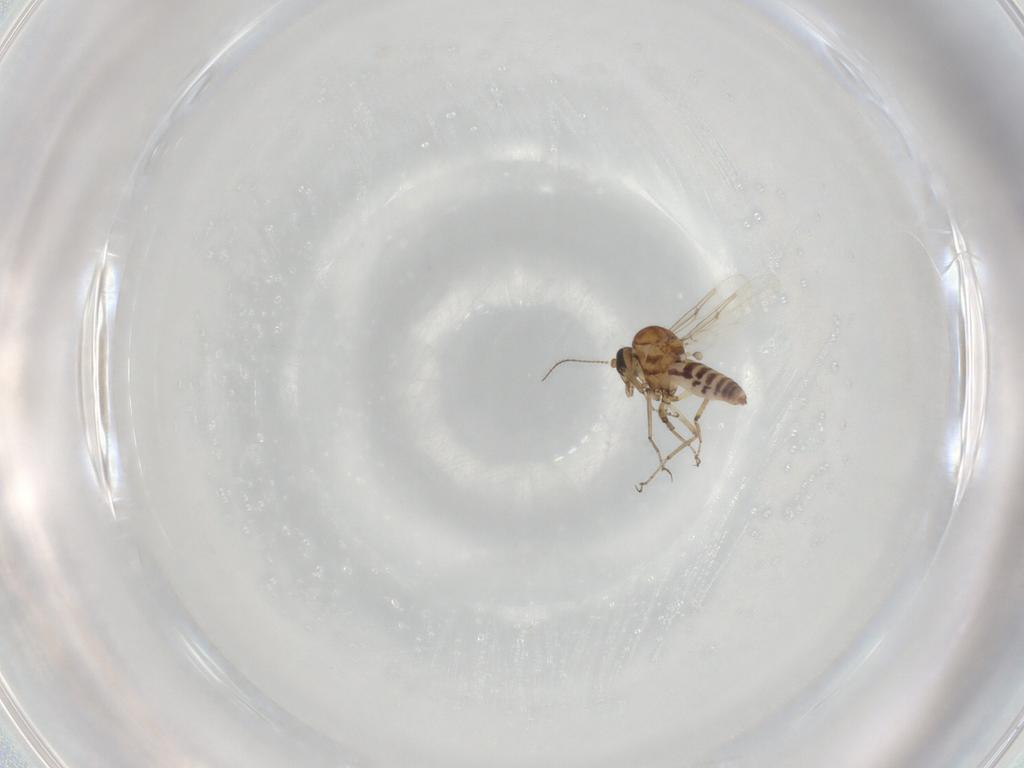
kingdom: Animalia
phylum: Arthropoda
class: Insecta
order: Diptera
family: Ceratopogonidae
